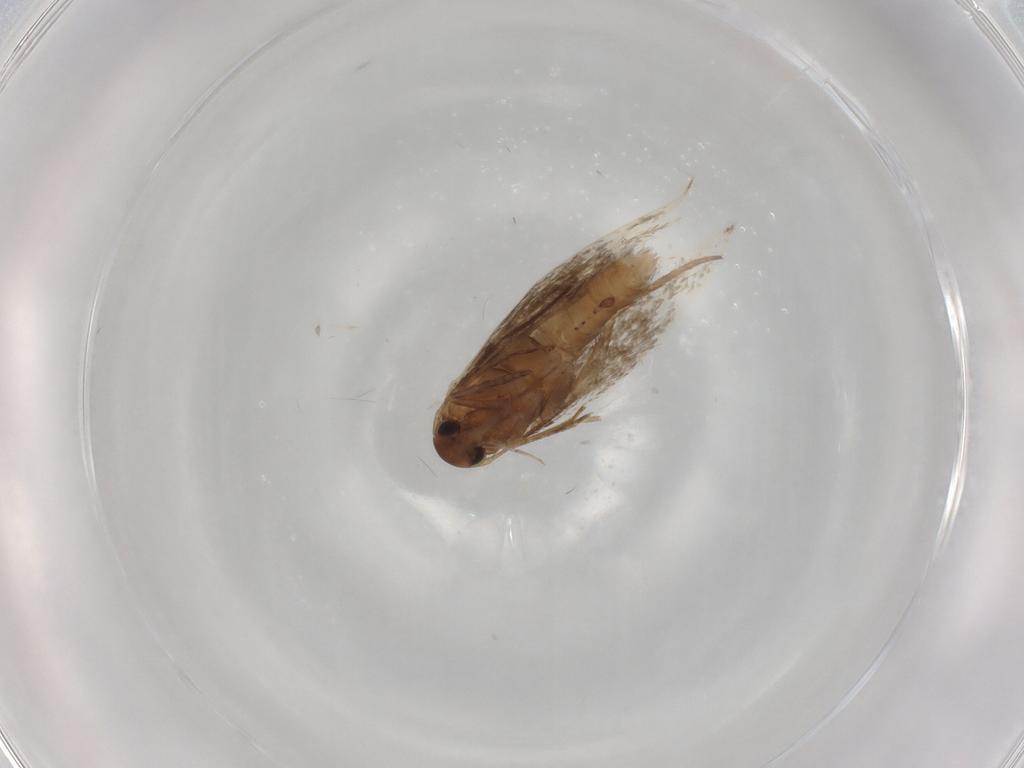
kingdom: Animalia
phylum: Arthropoda
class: Insecta
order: Lepidoptera
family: Elachistidae
